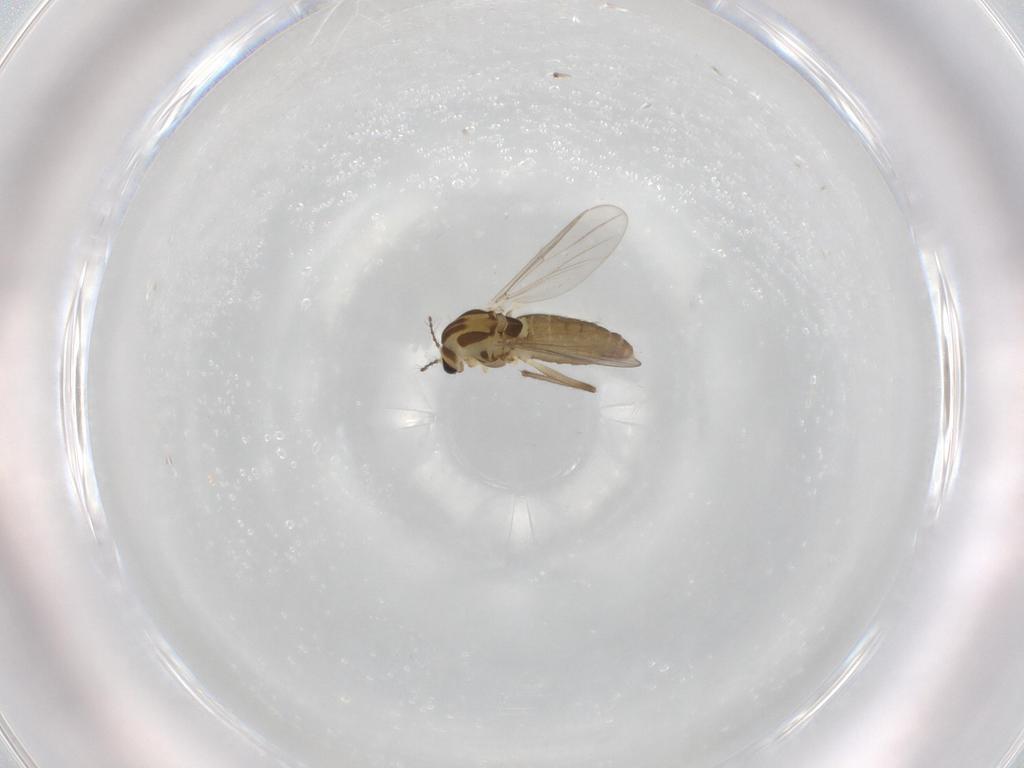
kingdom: Animalia
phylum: Arthropoda
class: Insecta
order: Diptera
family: Chironomidae
